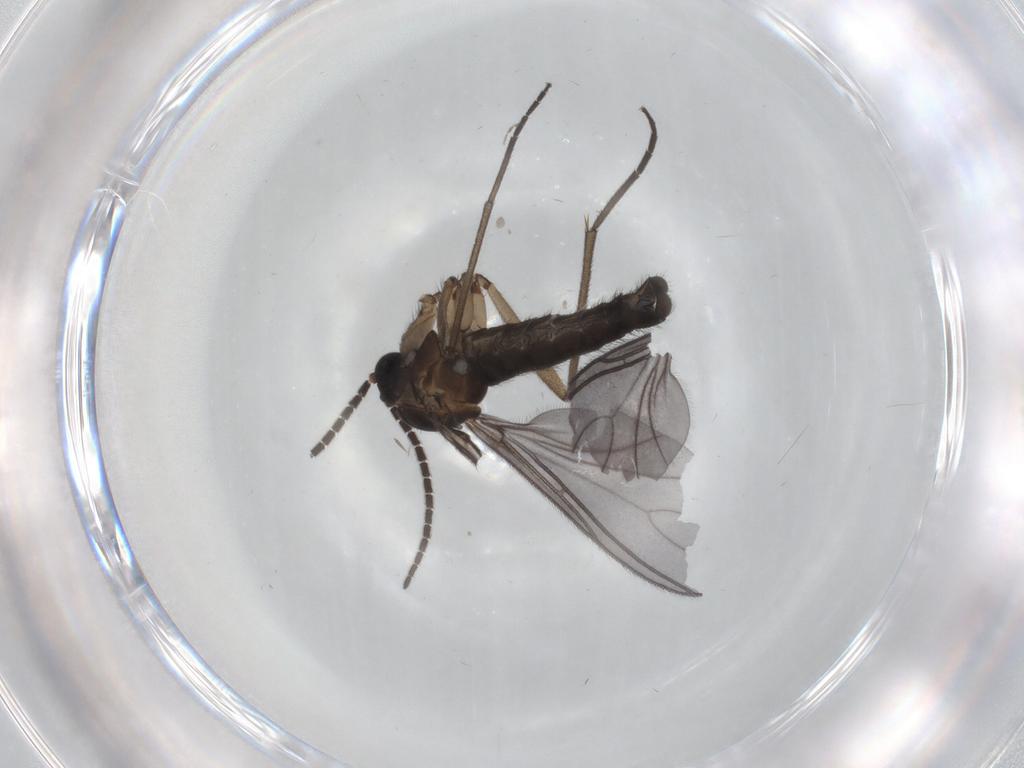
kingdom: Animalia
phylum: Arthropoda
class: Insecta
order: Diptera
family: Sciaridae
